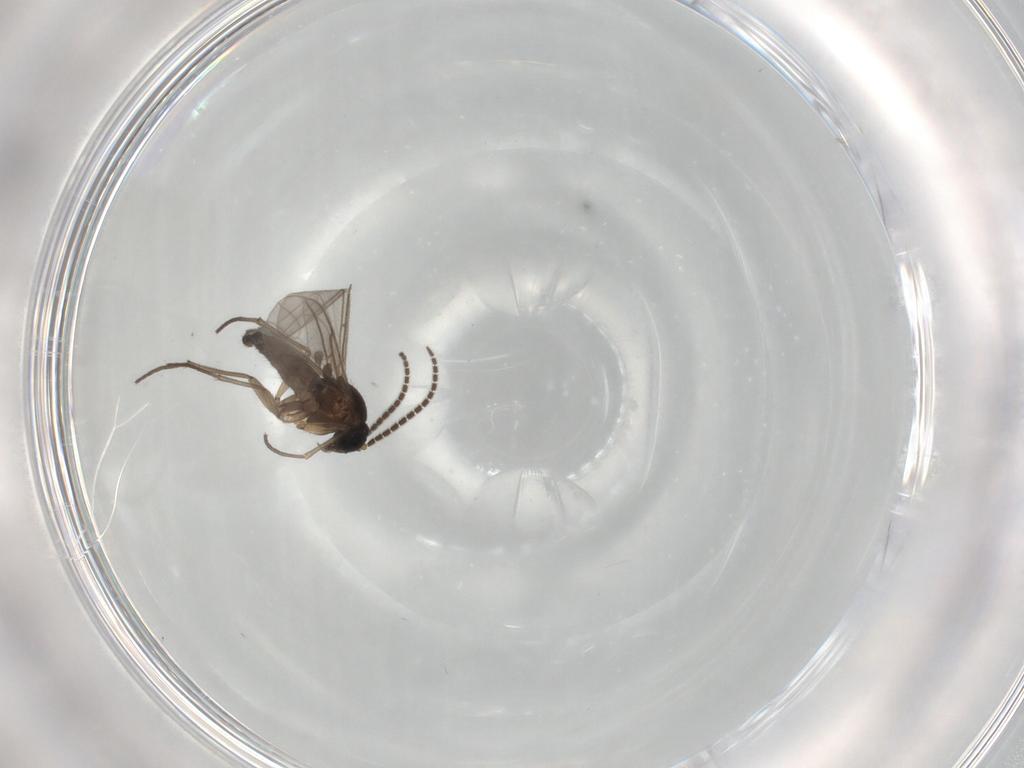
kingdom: Animalia
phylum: Arthropoda
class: Insecta
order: Diptera
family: Sciaridae
